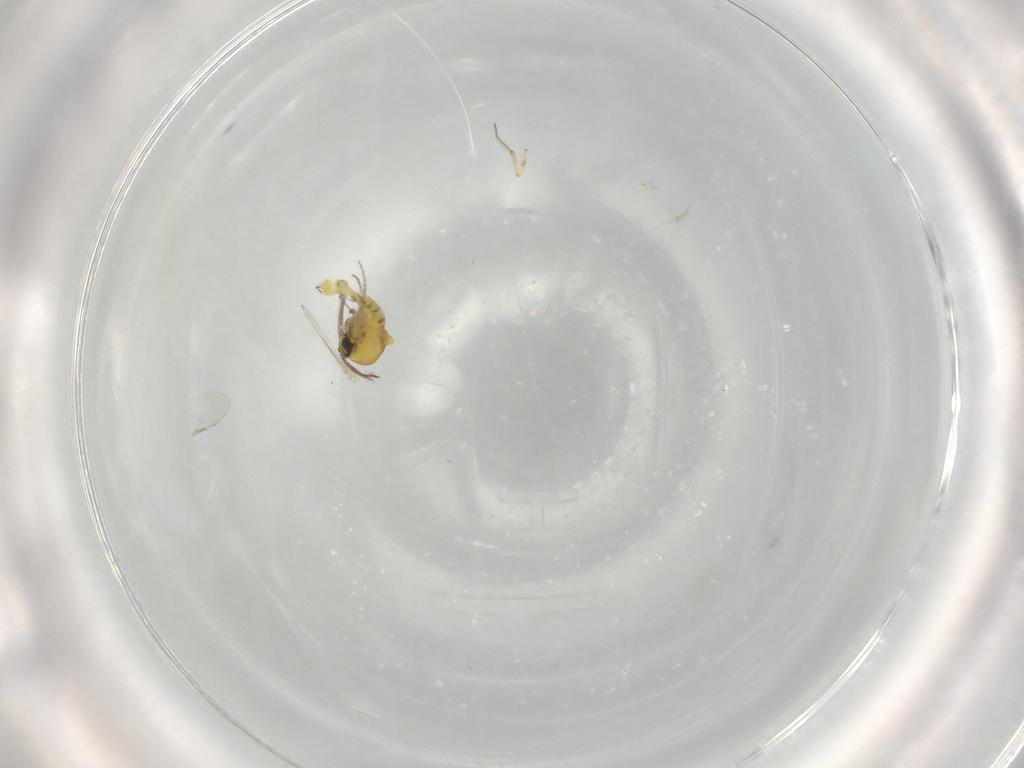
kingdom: Animalia
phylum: Arthropoda
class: Insecta
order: Diptera
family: Ceratopogonidae
